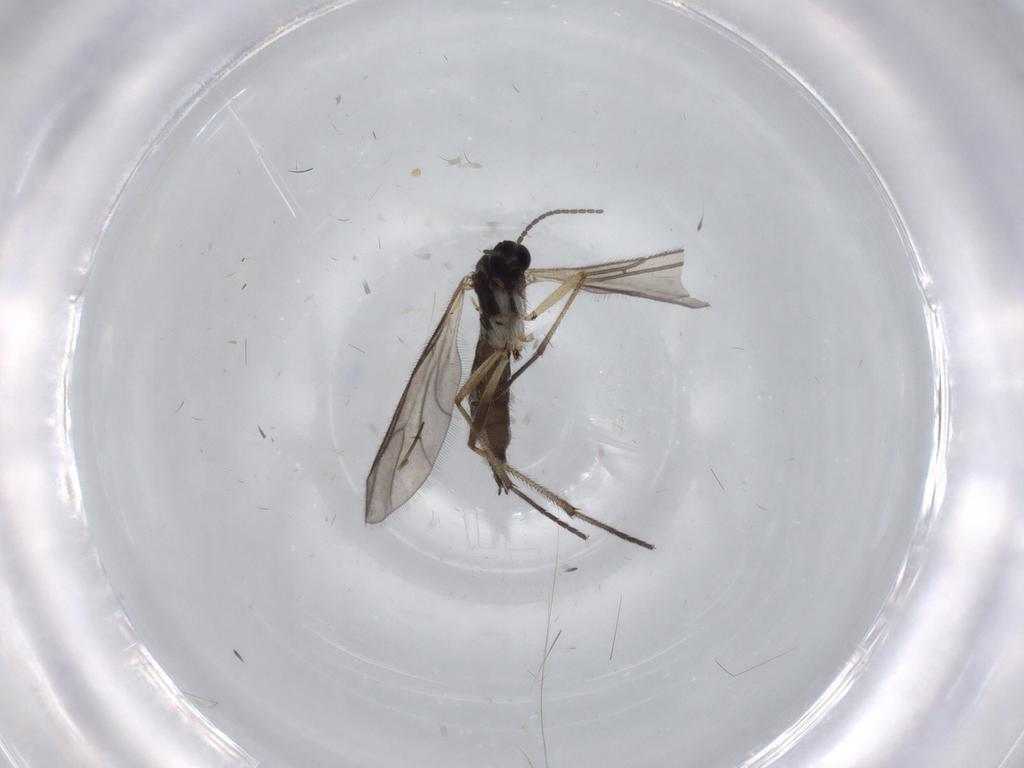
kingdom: Animalia
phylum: Arthropoda
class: Insecta
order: Diptera
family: Sciaridae
